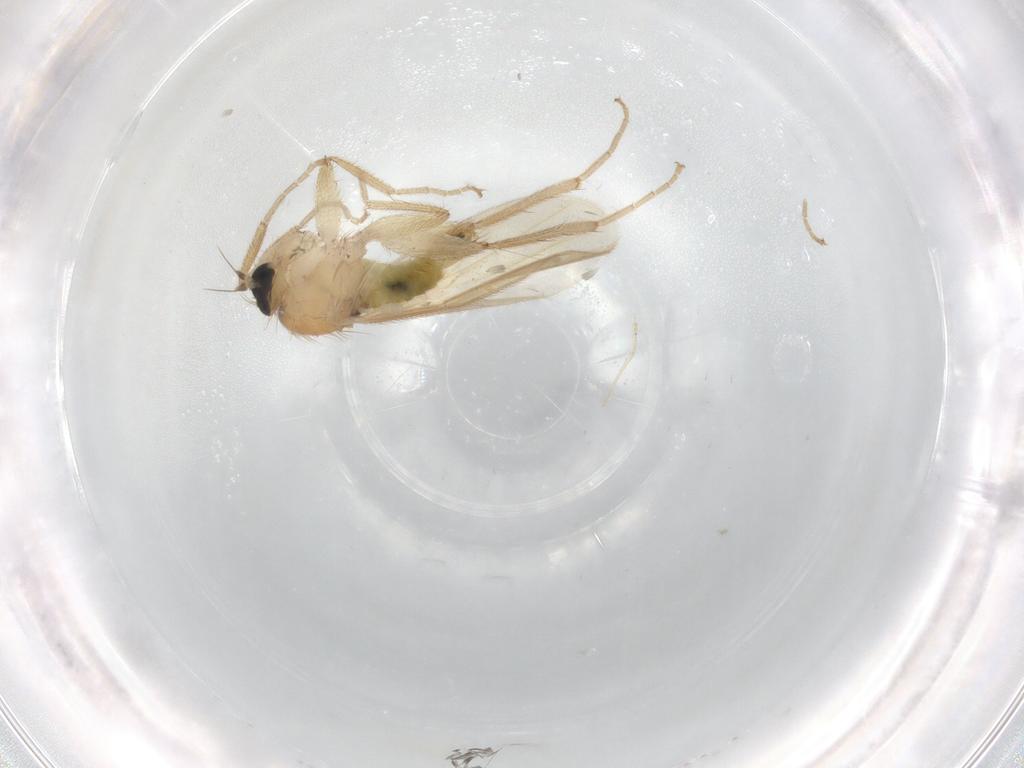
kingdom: Animalia
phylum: Arthropoda
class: Insecta
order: Diptera
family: Hybotidae
